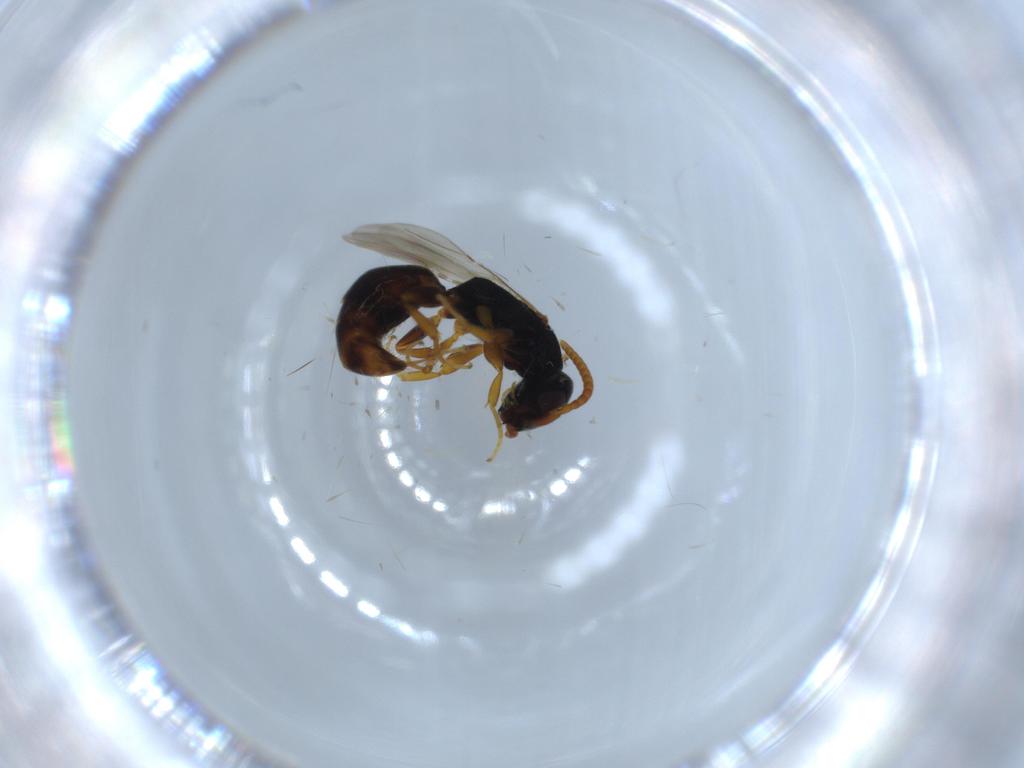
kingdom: Animalia
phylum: Arthropoda
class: Insecta
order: Hymenoptera
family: Bethylidae
